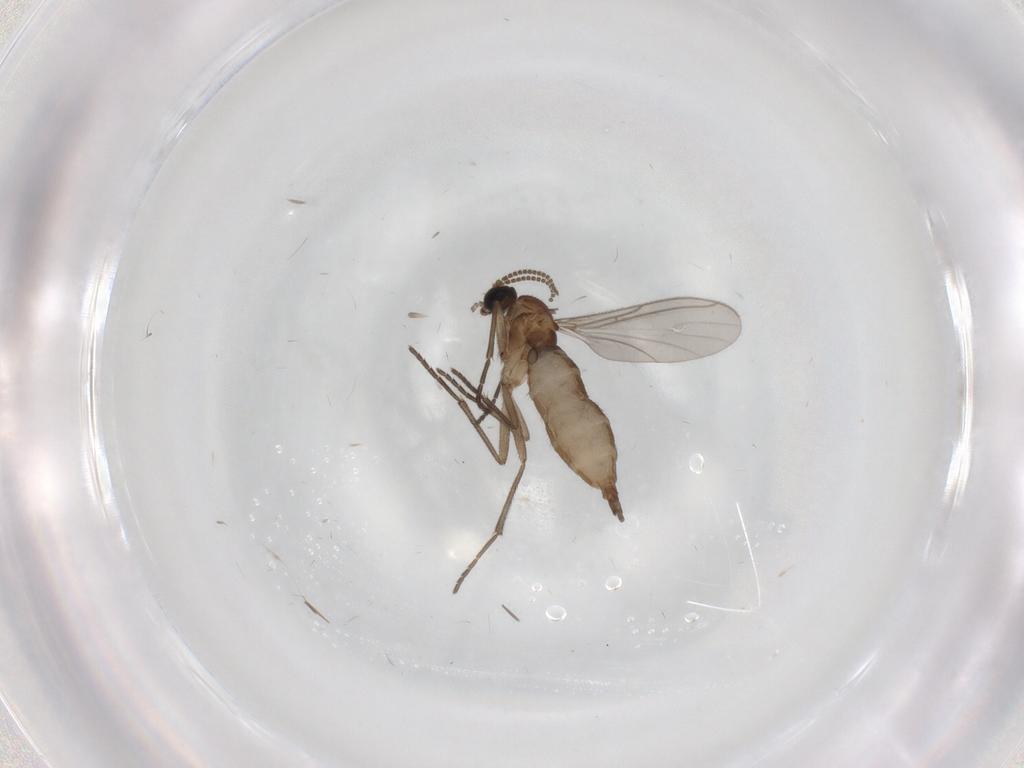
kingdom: Animalia
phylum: Arthropoda
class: Insecta
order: Diptera
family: Sciaridae
